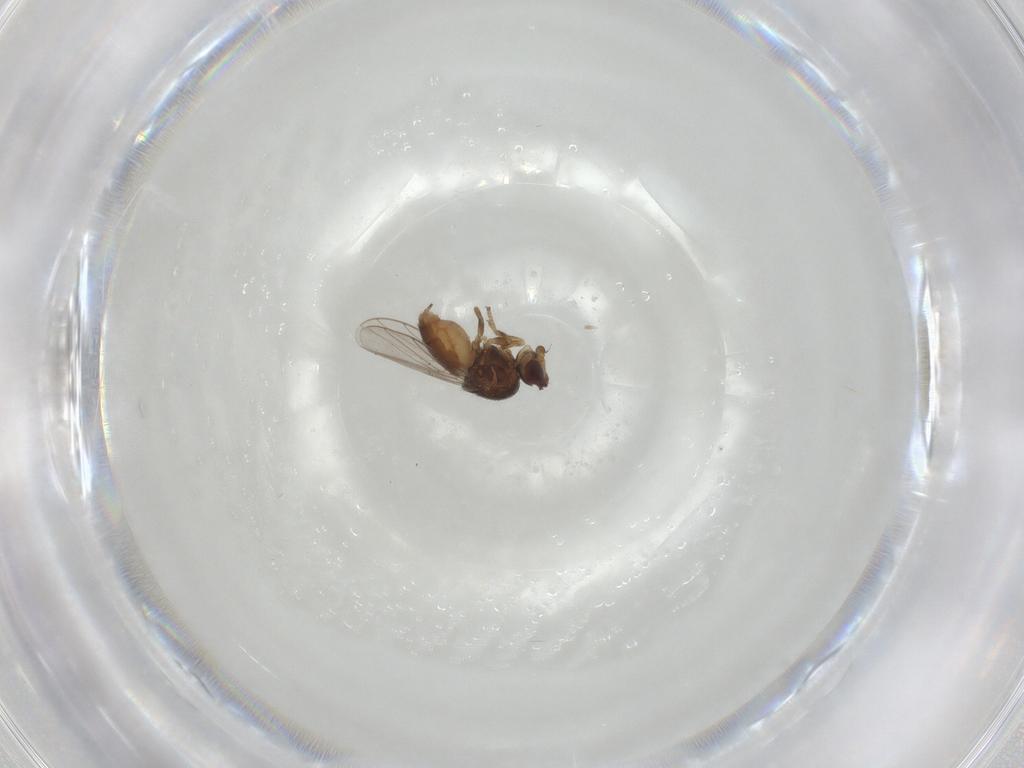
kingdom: Animalia
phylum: Arthropoda
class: Insecta
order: Diptera
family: Chloropidae
